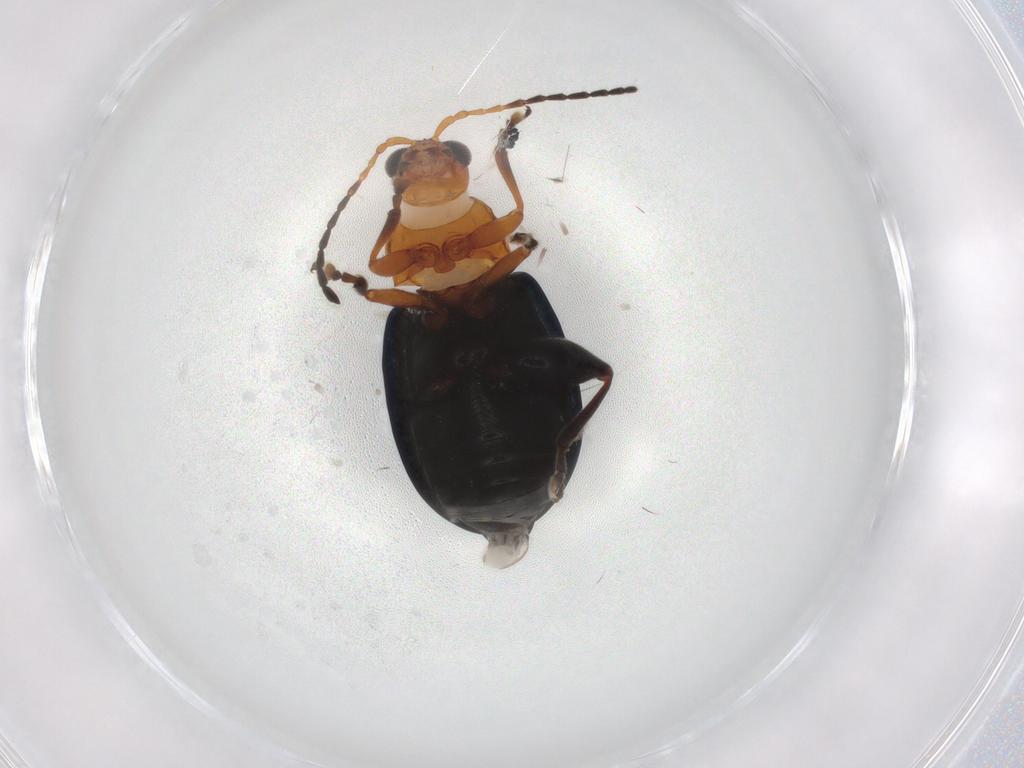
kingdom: Animalia
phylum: Arthropoda
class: Insecta
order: Coleoptera
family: Chrysomelidae
